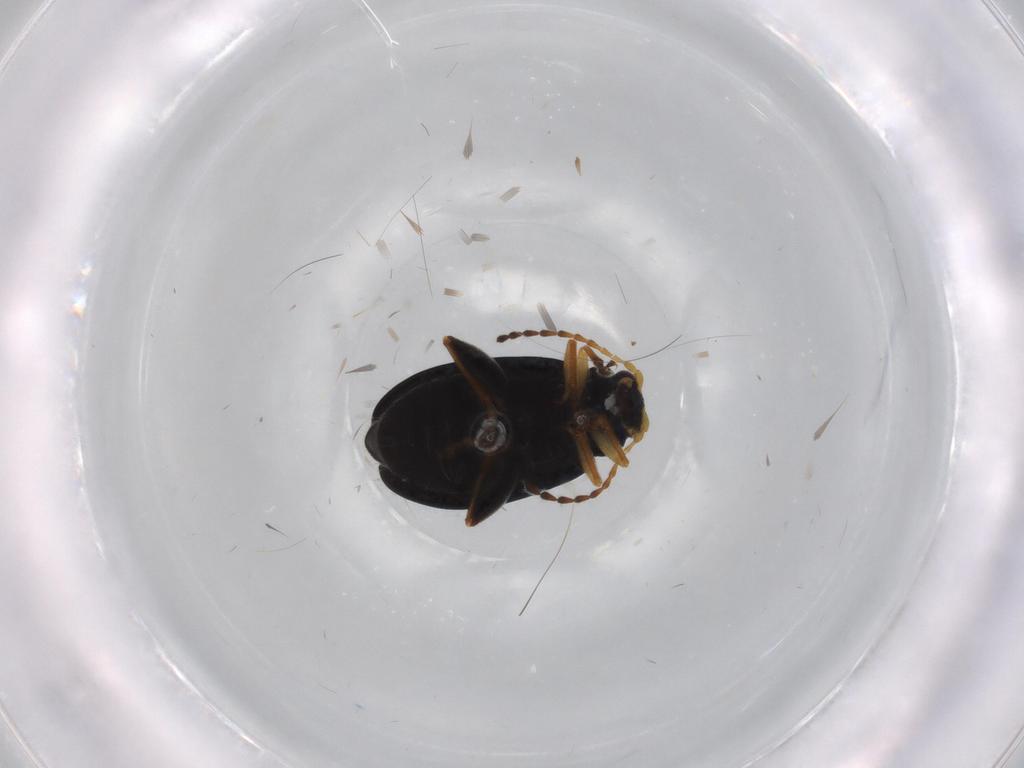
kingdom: Animalia
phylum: Arthropoda
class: Insecta
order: Coleoptera
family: Chrysomelidae
